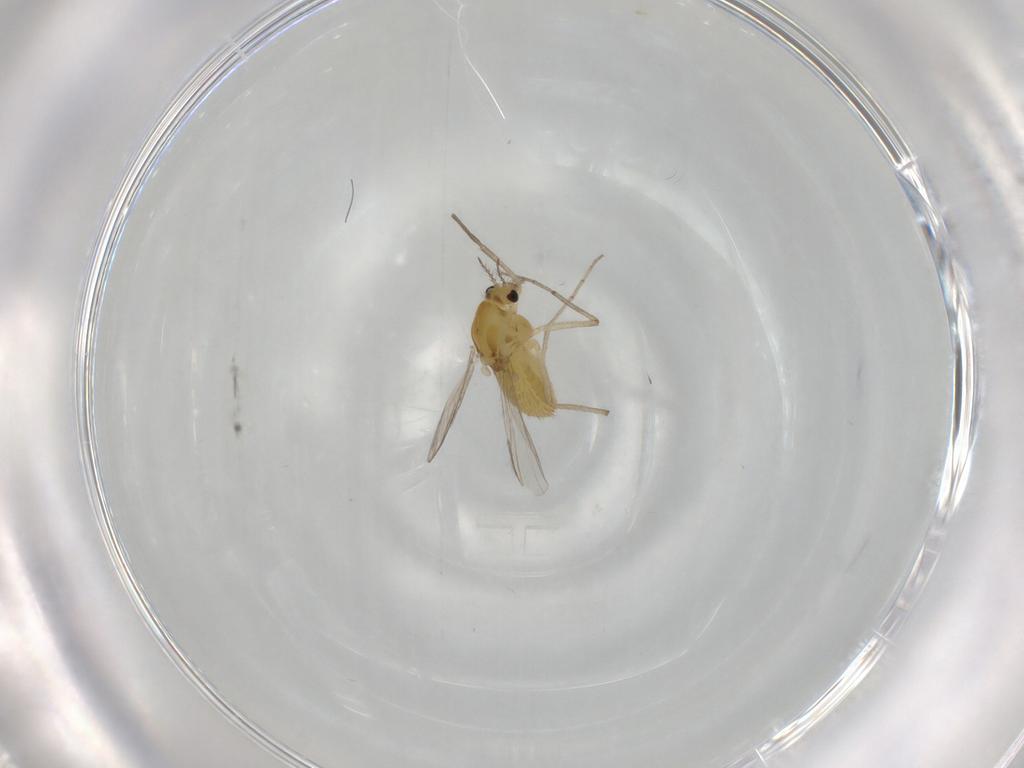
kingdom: Animalia
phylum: Arthropoda
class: Insecta
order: Diptera
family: Chironomidae
